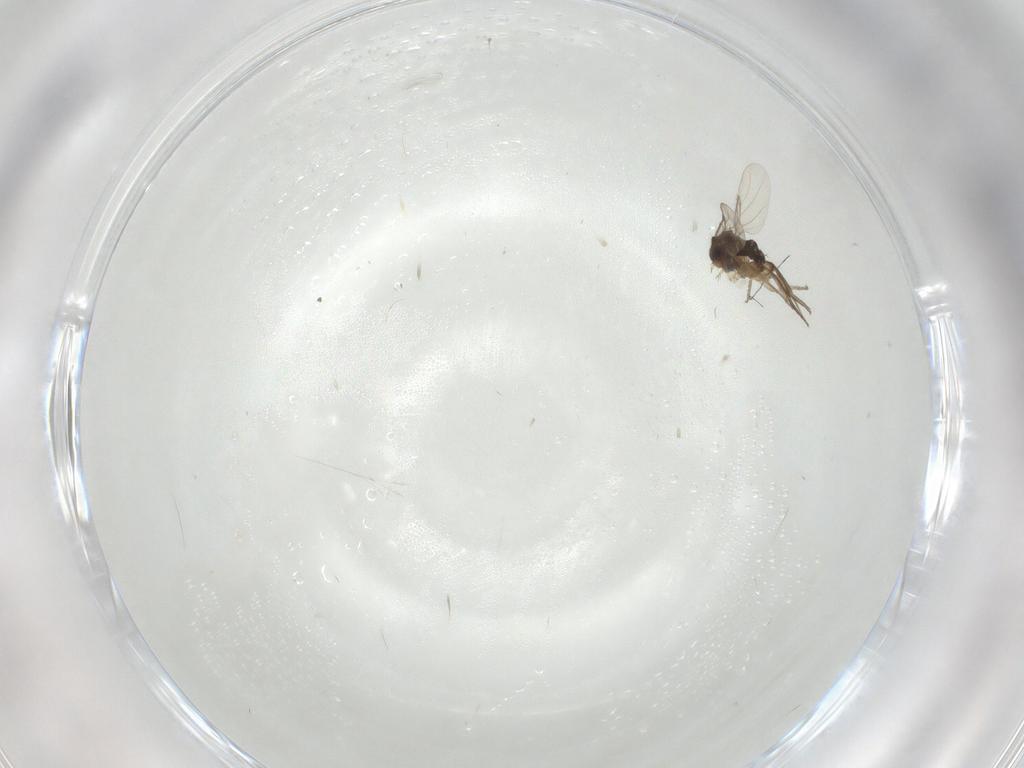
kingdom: Animalia
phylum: Arthropoda
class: Insecta
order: Diptera
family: Phoridae
